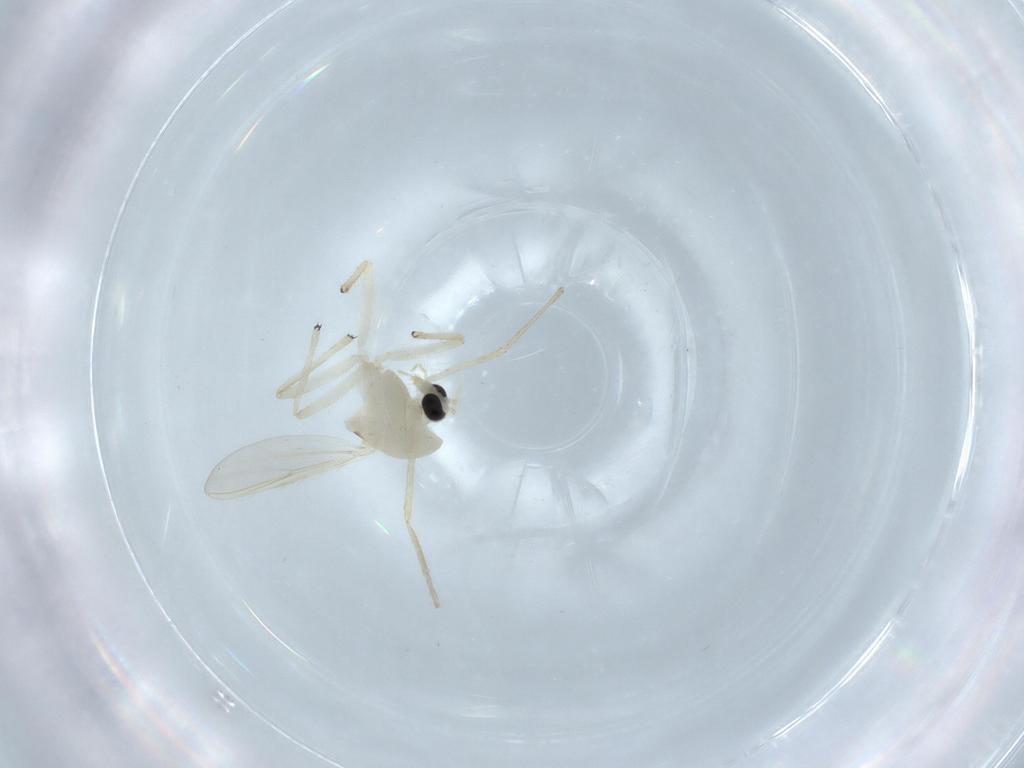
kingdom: Animalia
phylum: Arthropoda
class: Insecta
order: Diptera
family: Chironomidae
